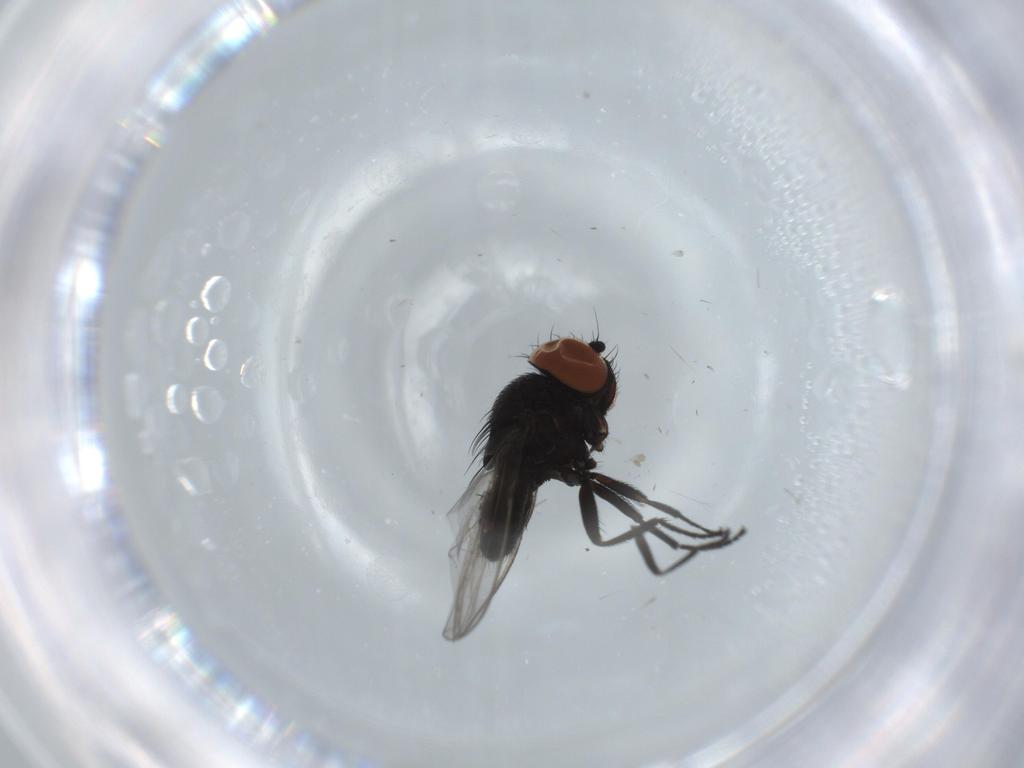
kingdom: Animalia
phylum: Arthropoda
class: Insecta
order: Diptera
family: Milichiidae
